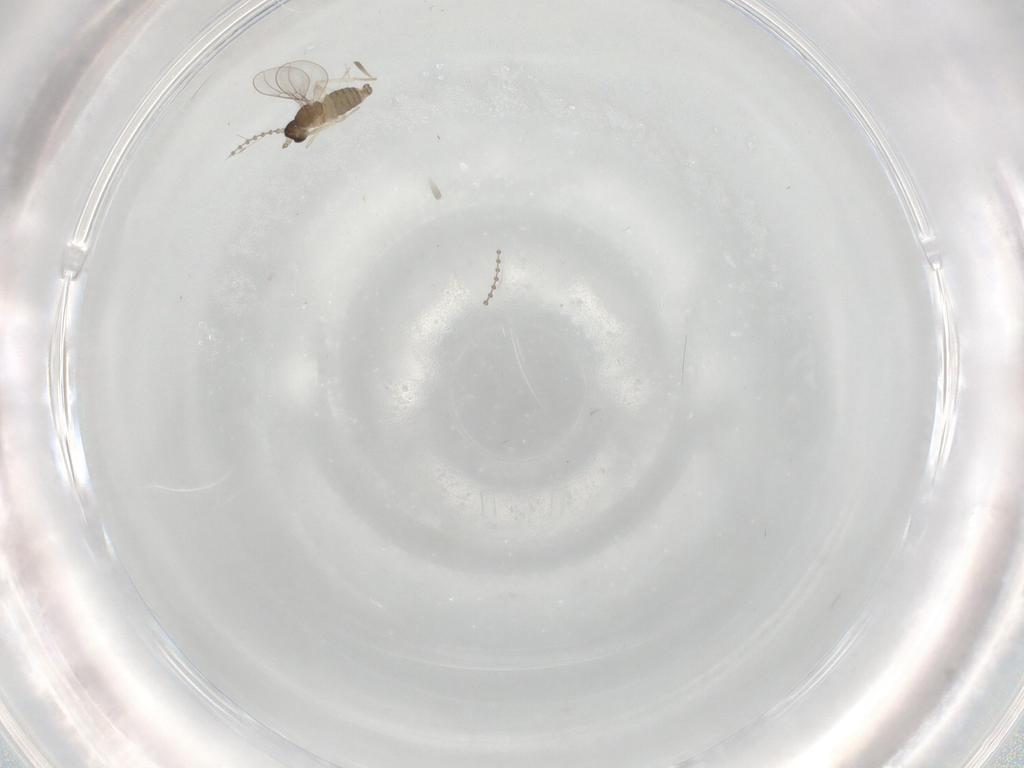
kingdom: Animalia
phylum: Arthropoda
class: Insecta
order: Diptera
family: Cecidomyiidae
